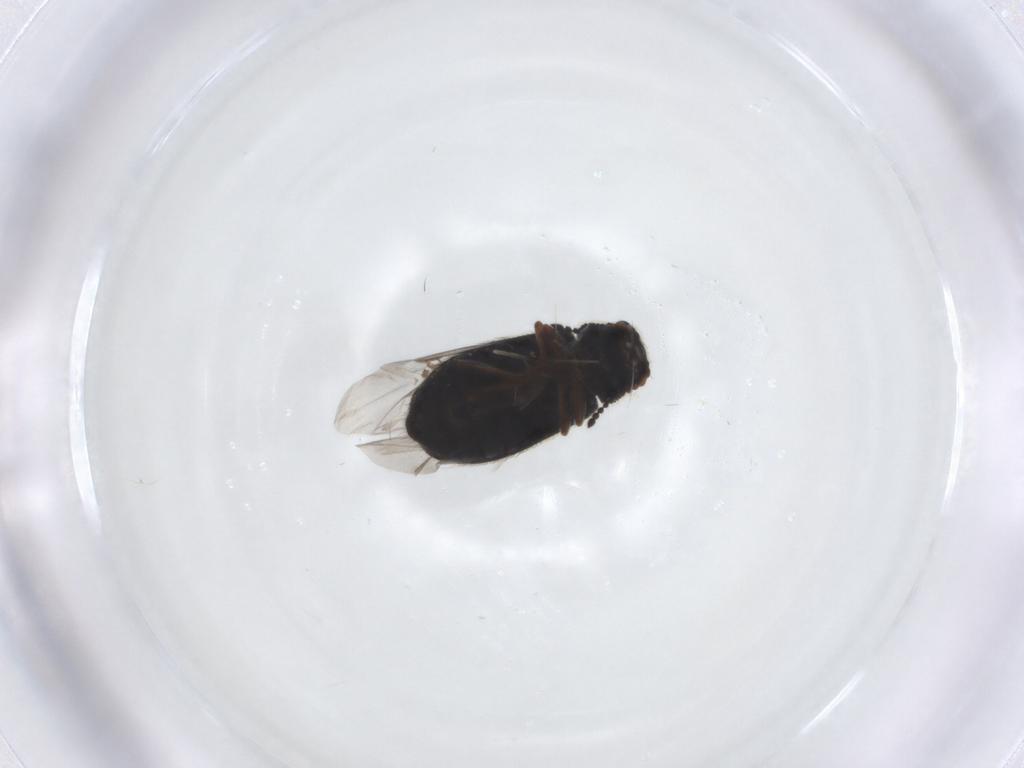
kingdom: Animalia
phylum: Arthropoda
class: Insecta
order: Coleoptera
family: Melyridae
